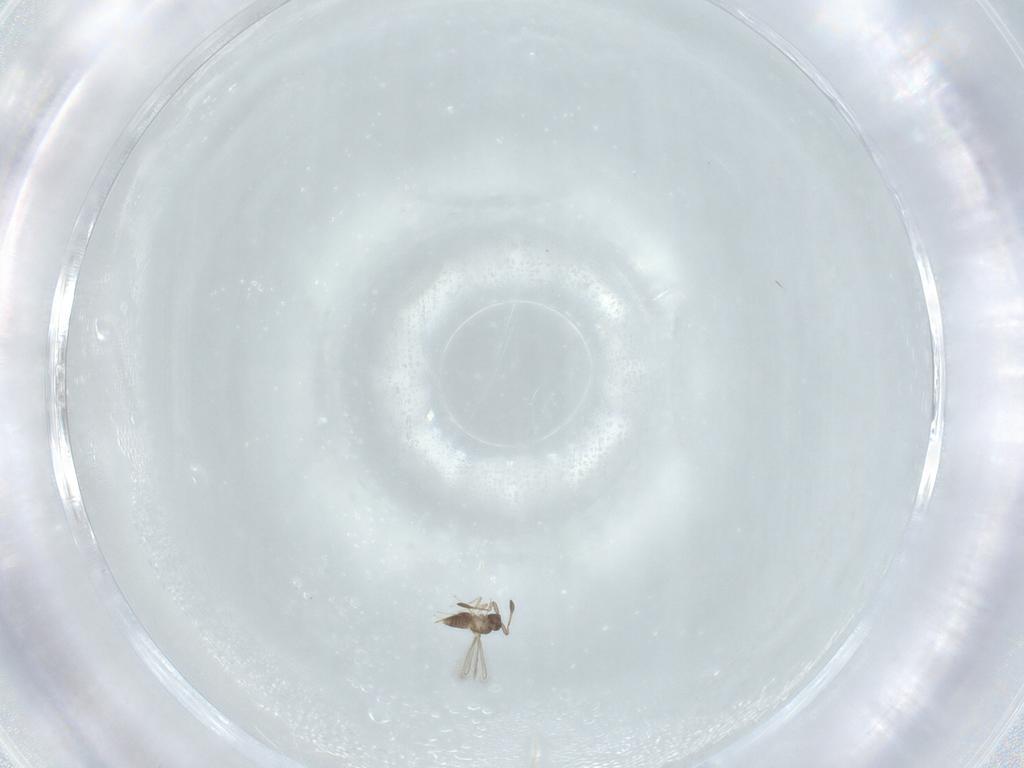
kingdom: Animalia
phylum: Arthropoda
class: Insecta
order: Hymenoptera
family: Mymaridae
